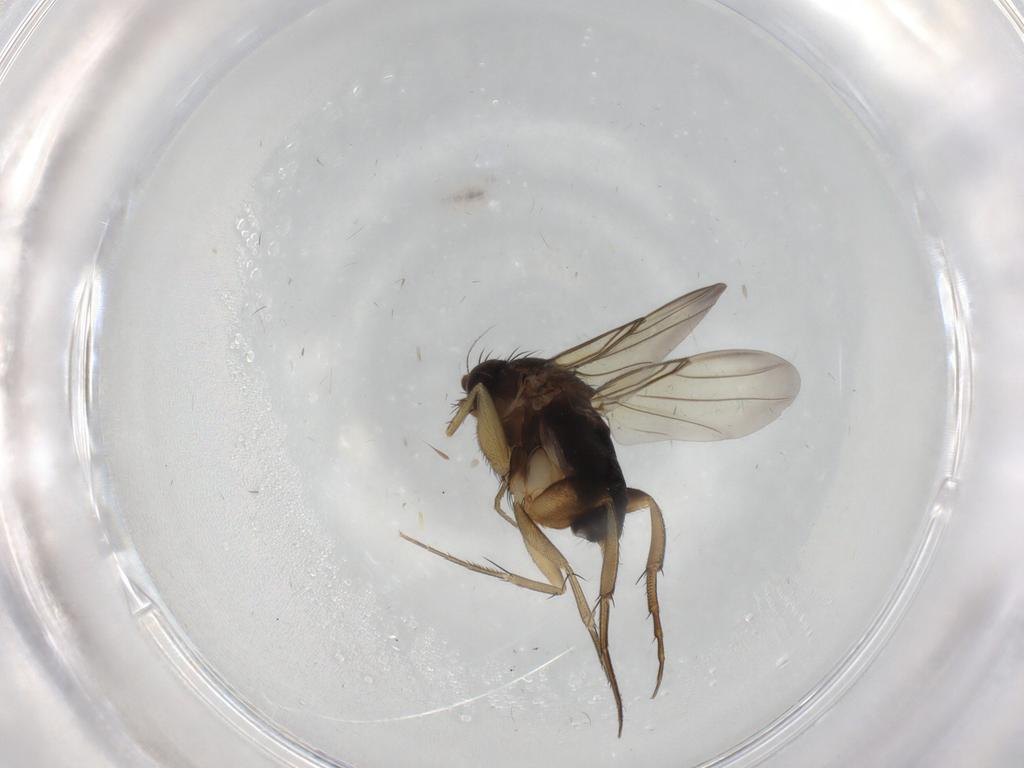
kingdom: Animalia
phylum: Arthropoda
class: Insecta
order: Diptera
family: Phoridae
